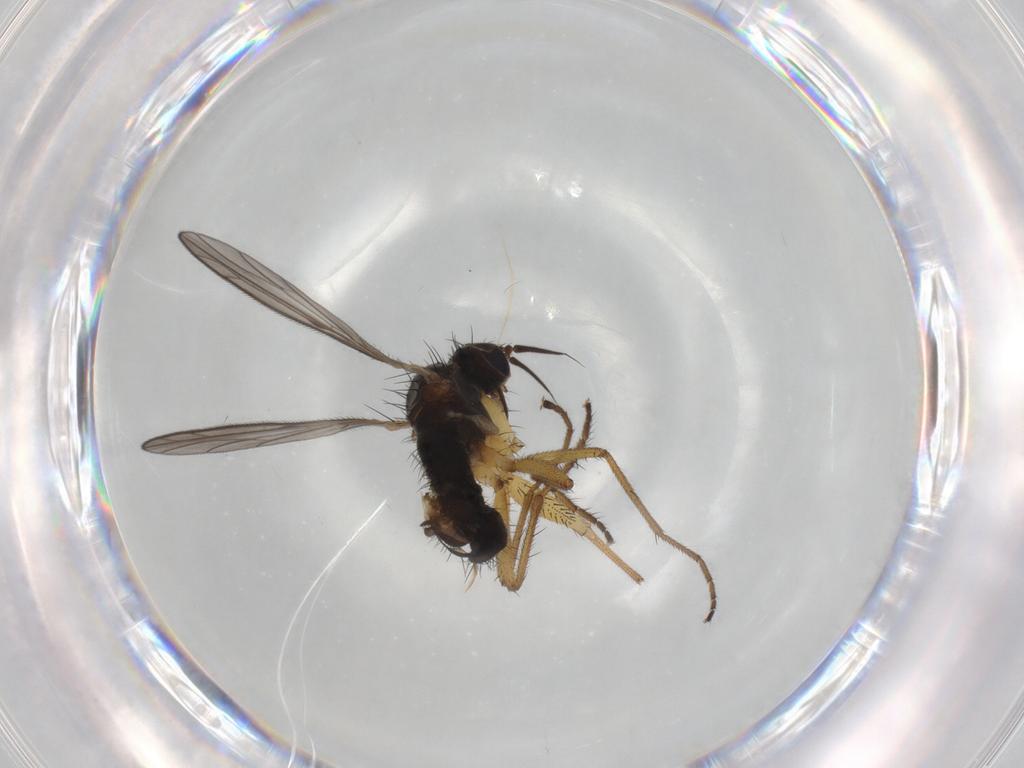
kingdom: Animalia
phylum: Arthropoda
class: Insecta
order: Diptera
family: Empididae
